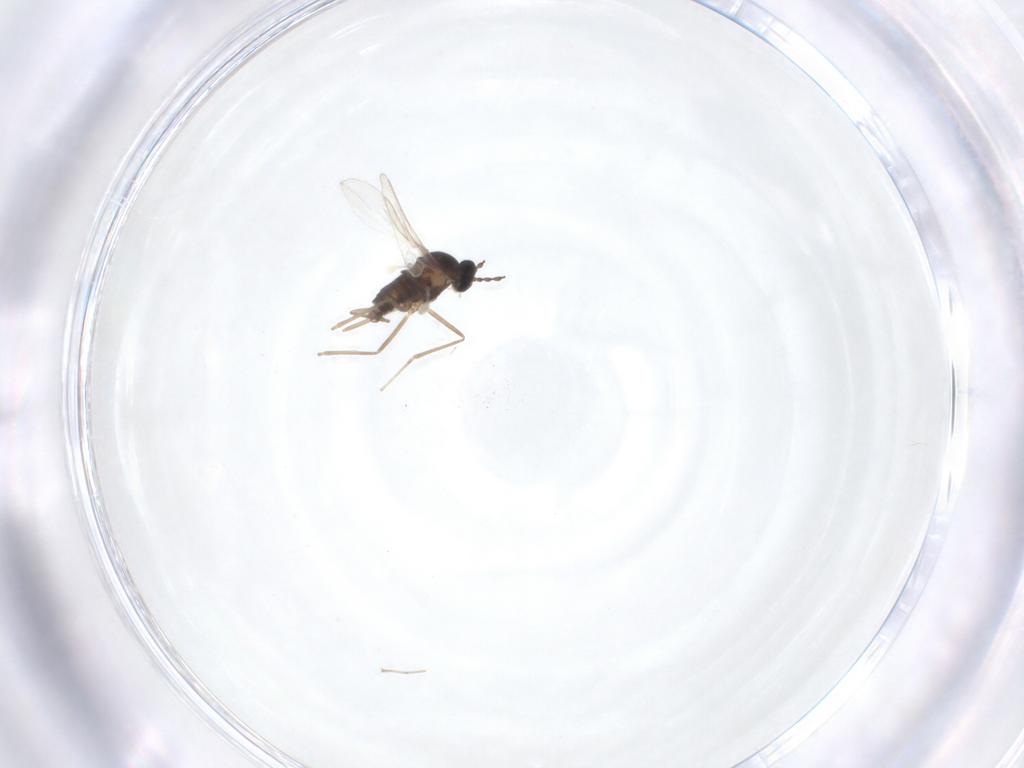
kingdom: Animalia
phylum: Arthropoda
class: Insecta
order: Diptera
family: Cecidomyiidae
